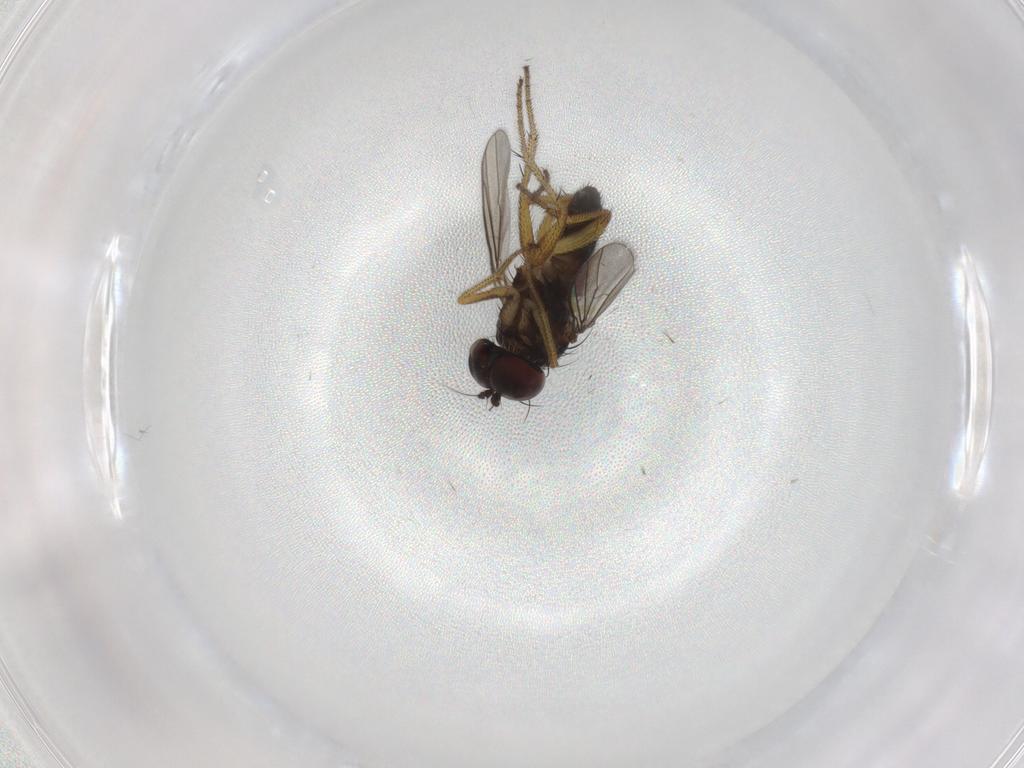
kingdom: Animalia
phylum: Arthropoda
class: Insecta
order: Diptera
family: Dolichopodidae
